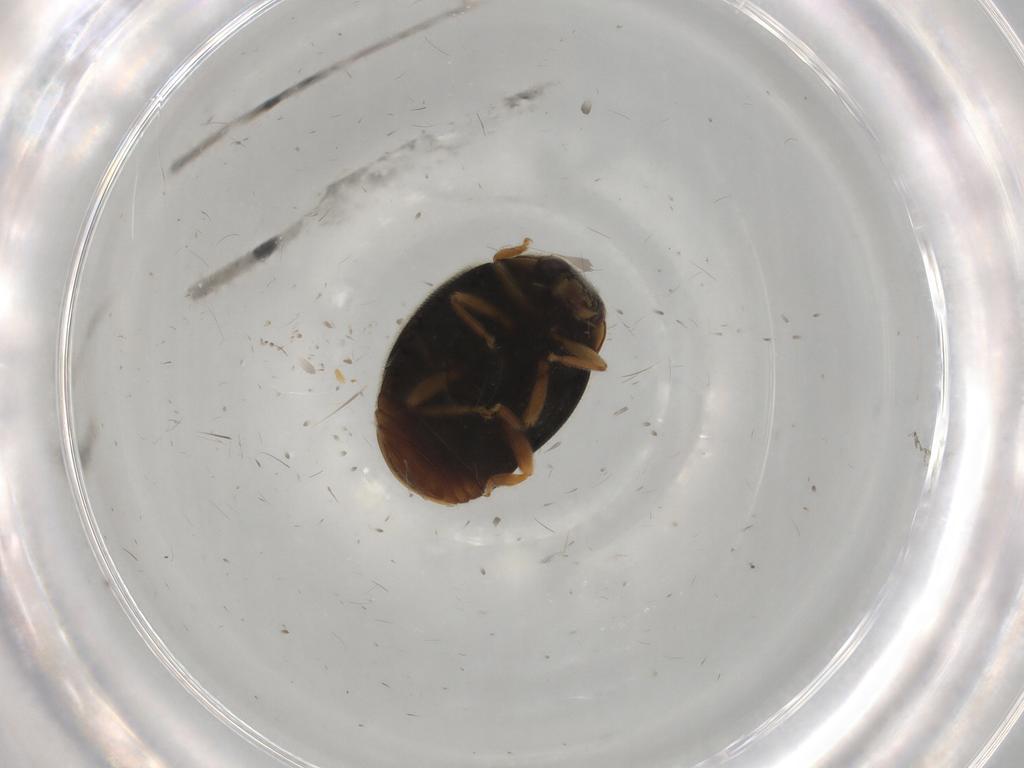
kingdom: Animalia
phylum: Arthropoda
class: Insecta
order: Coleoptera
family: Coccinellidae
